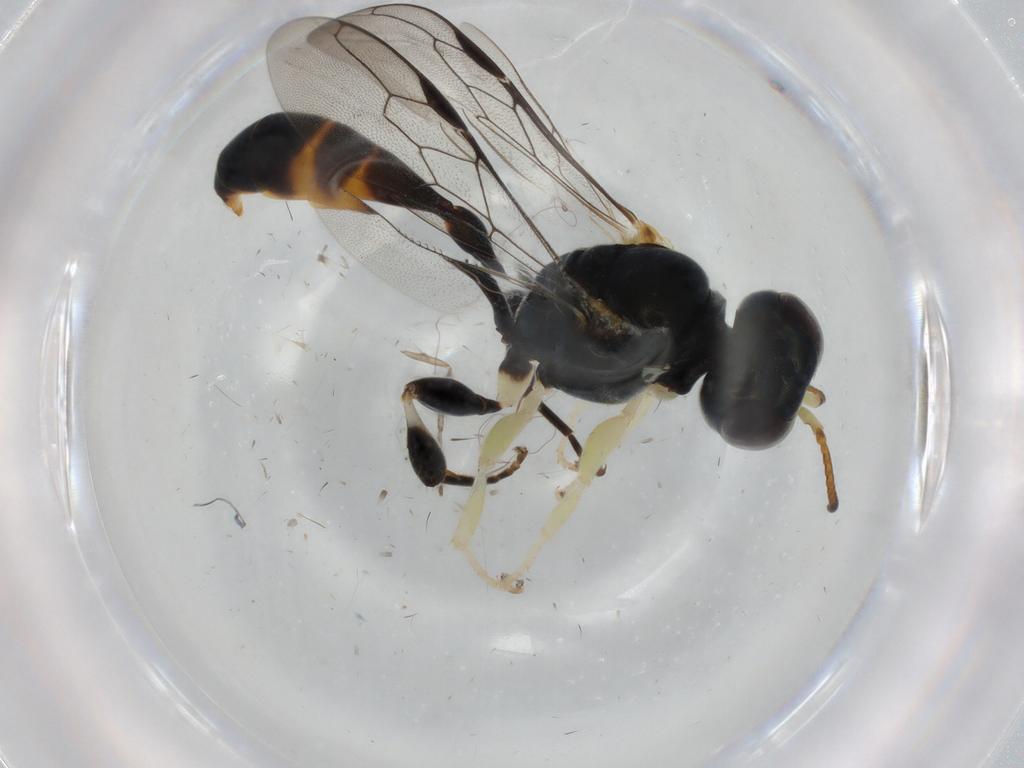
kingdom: Animalia
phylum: Arthropoda
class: Insecta
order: Hymenoptera
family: Crabronidae
